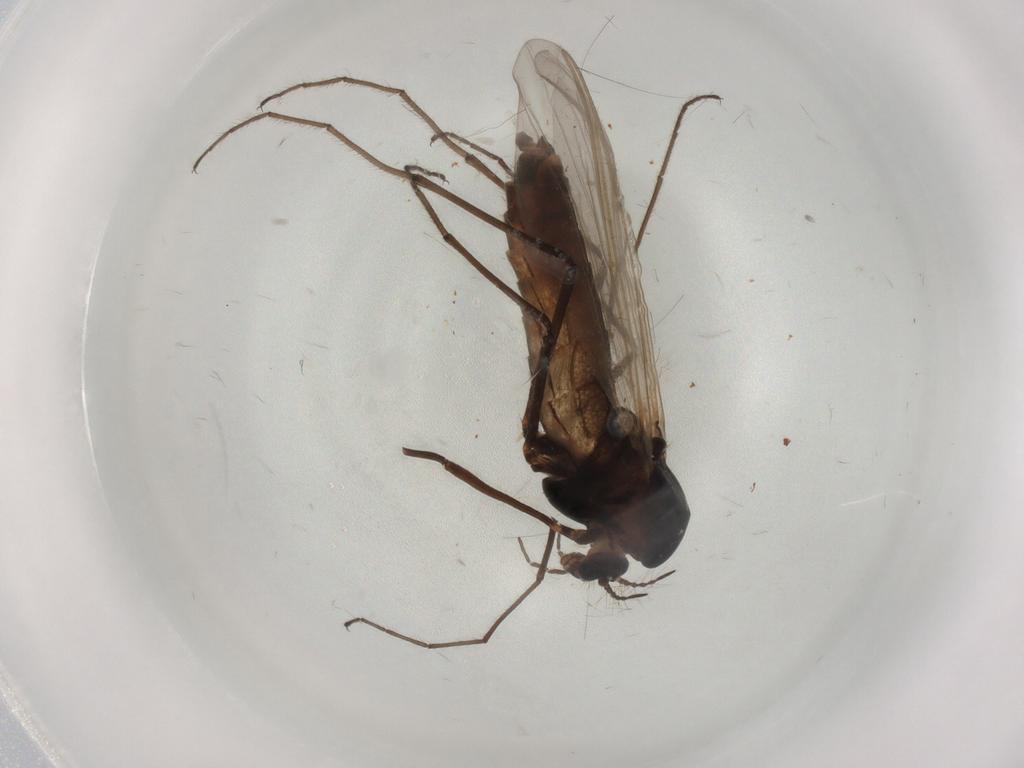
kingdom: Animalia
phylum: Arthropoda
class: Insecta
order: Diptera
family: Chironomidae
